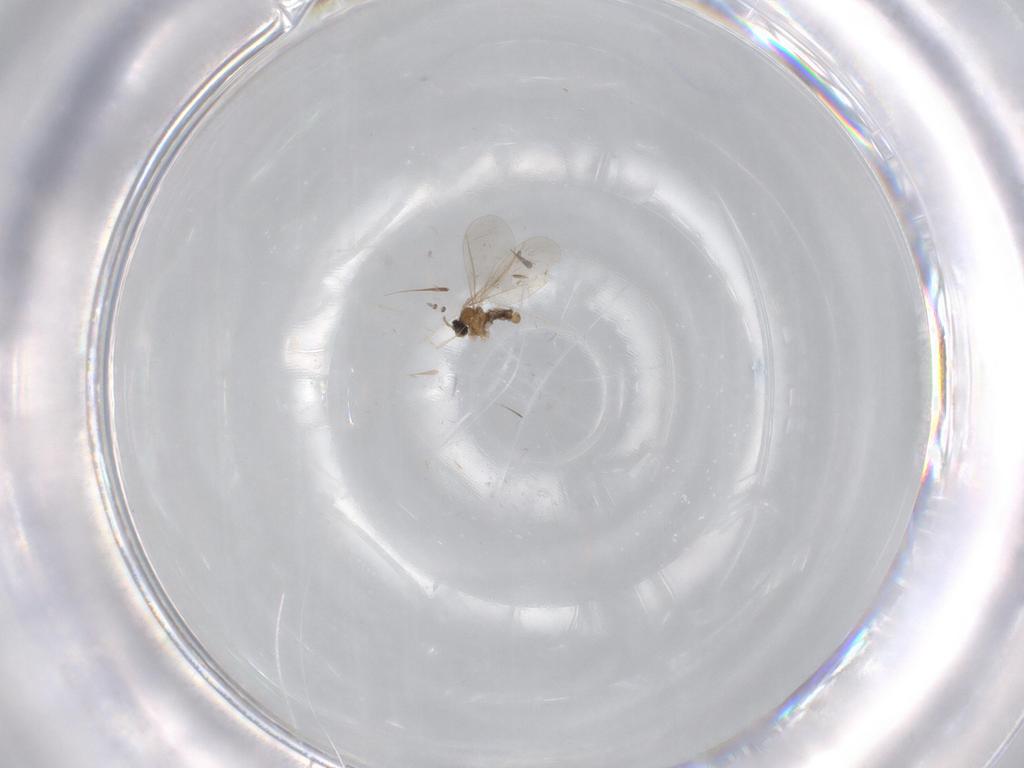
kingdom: Animalia
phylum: Arthropoda
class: Insecta
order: Diptera
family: Cecidomyiidae
